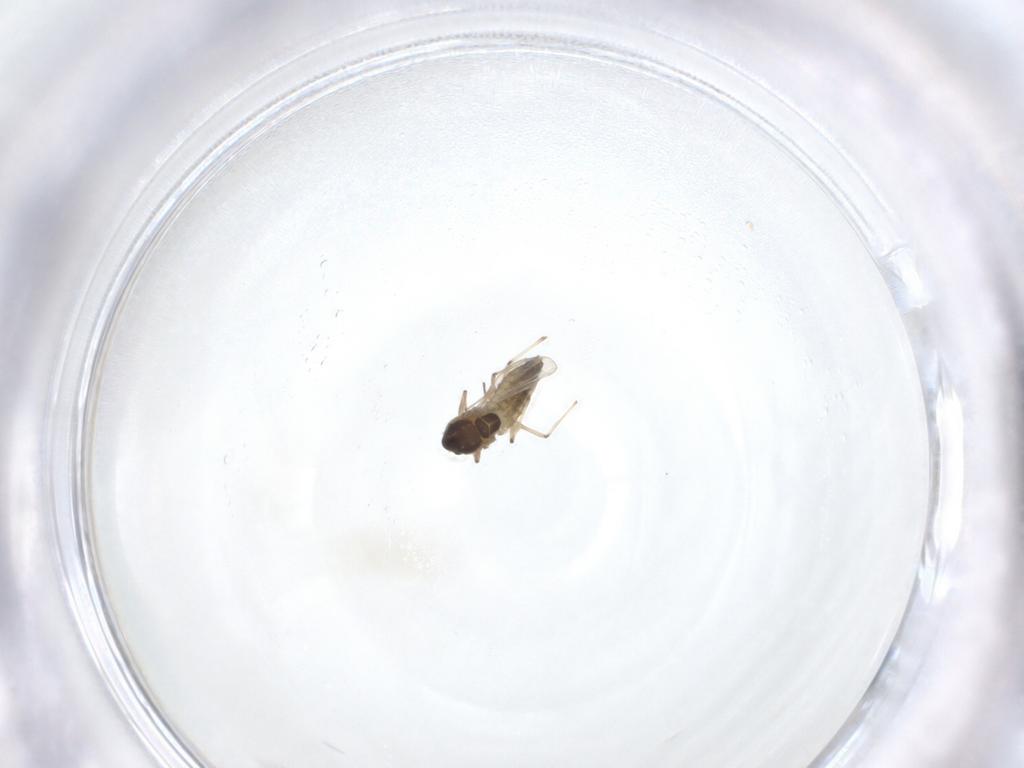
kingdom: Animalia
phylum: Arthropoda
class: Insecta
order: Diptera
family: Chironomidae
